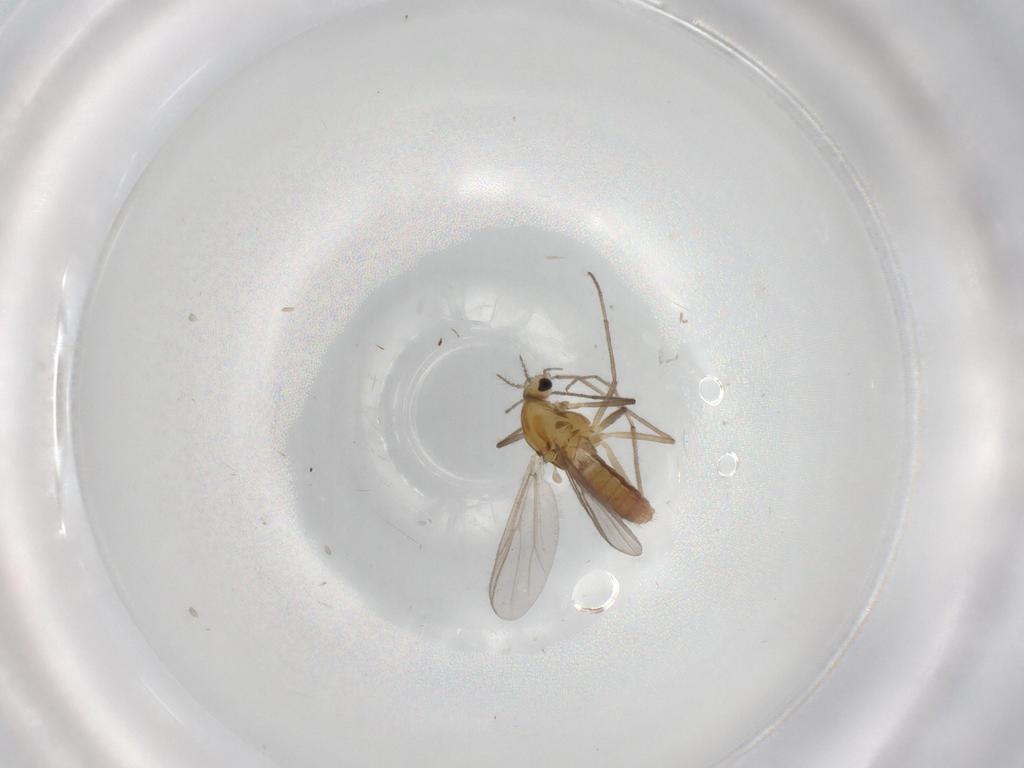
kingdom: Animalia
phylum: Arthropoda
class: Insecta
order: Diptera
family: Chironomidae
